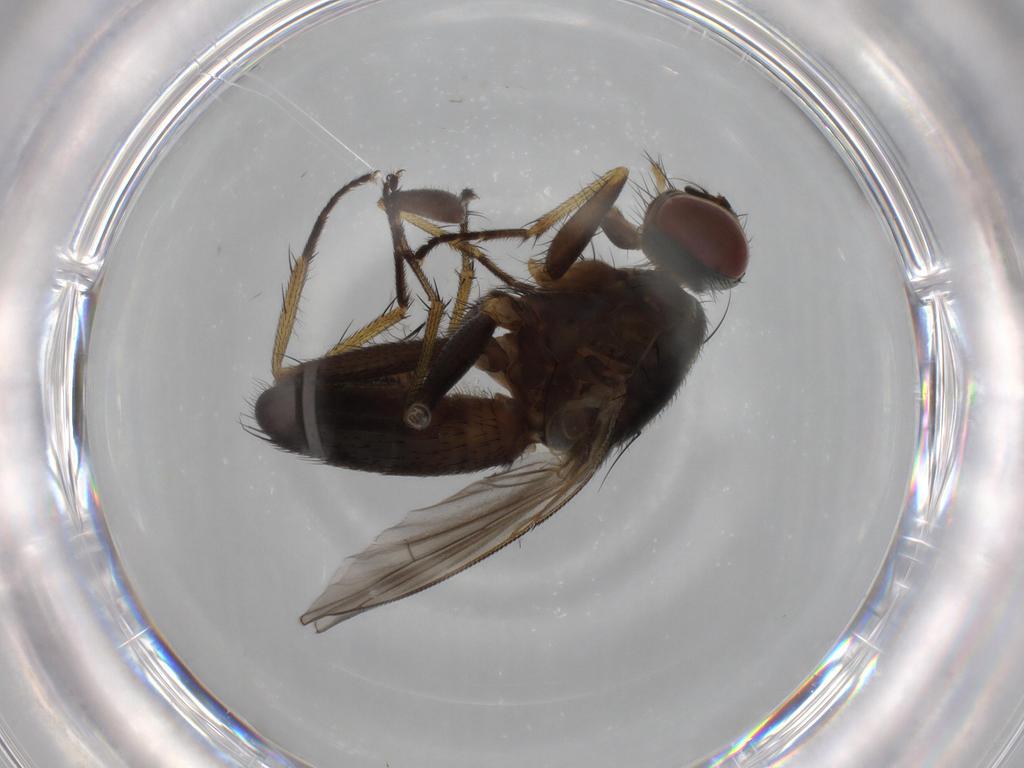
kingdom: Animalia
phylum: Arthropoda
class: Insecta
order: Diptera
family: Muscidae
